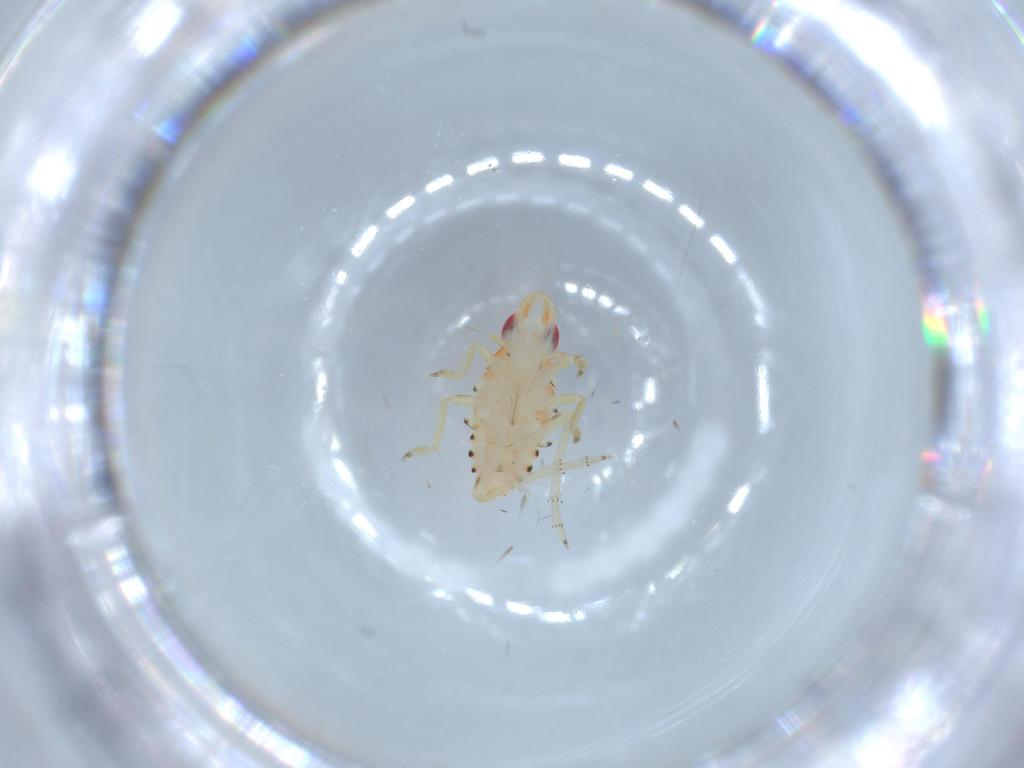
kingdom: Animalia
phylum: Arthropoda
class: Insecta
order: Hemiptera
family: Tropiduchidae
